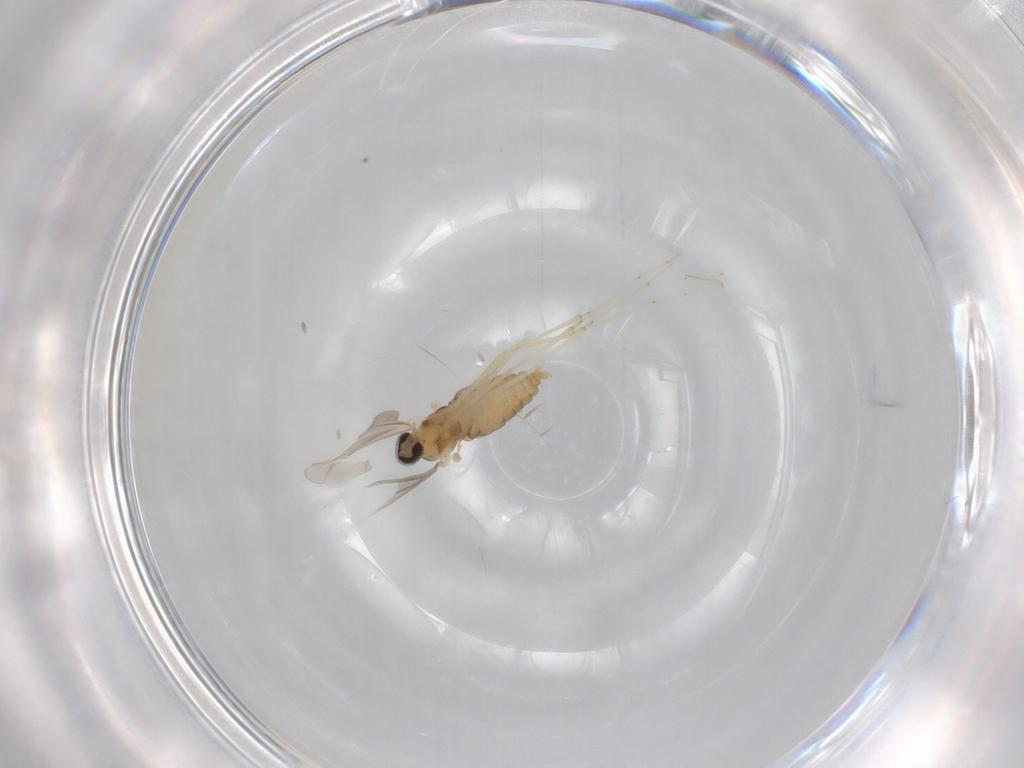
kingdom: Animalia
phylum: Arthropoda
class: Insecta
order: Diptera
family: Cecidomyiidae
